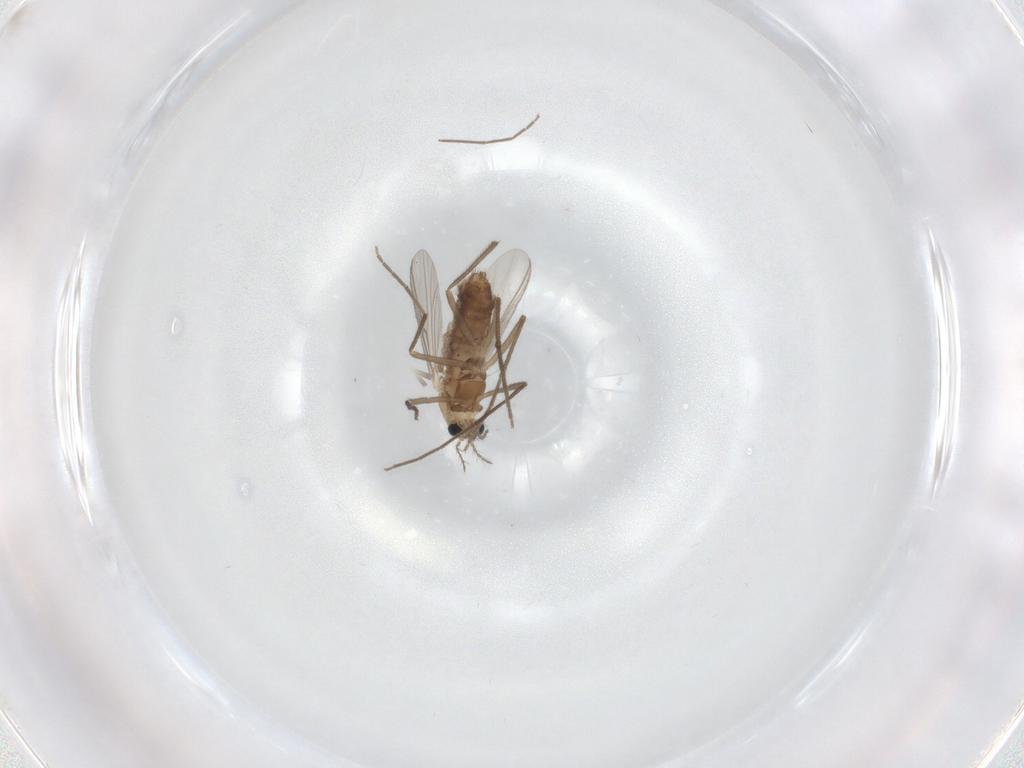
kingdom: Animalia
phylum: Arthropoda
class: Insecta
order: Diptera
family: Chironomidae
